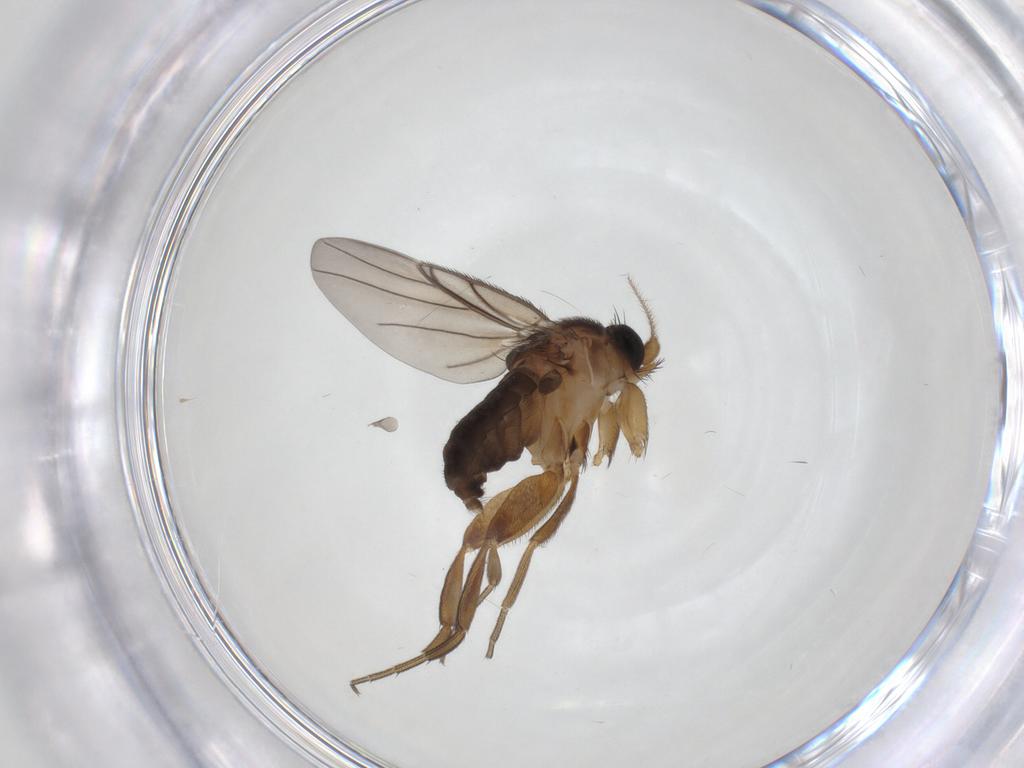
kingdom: Animalia
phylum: Arthropoda
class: Insecta
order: Diptera
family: Psychodidae
